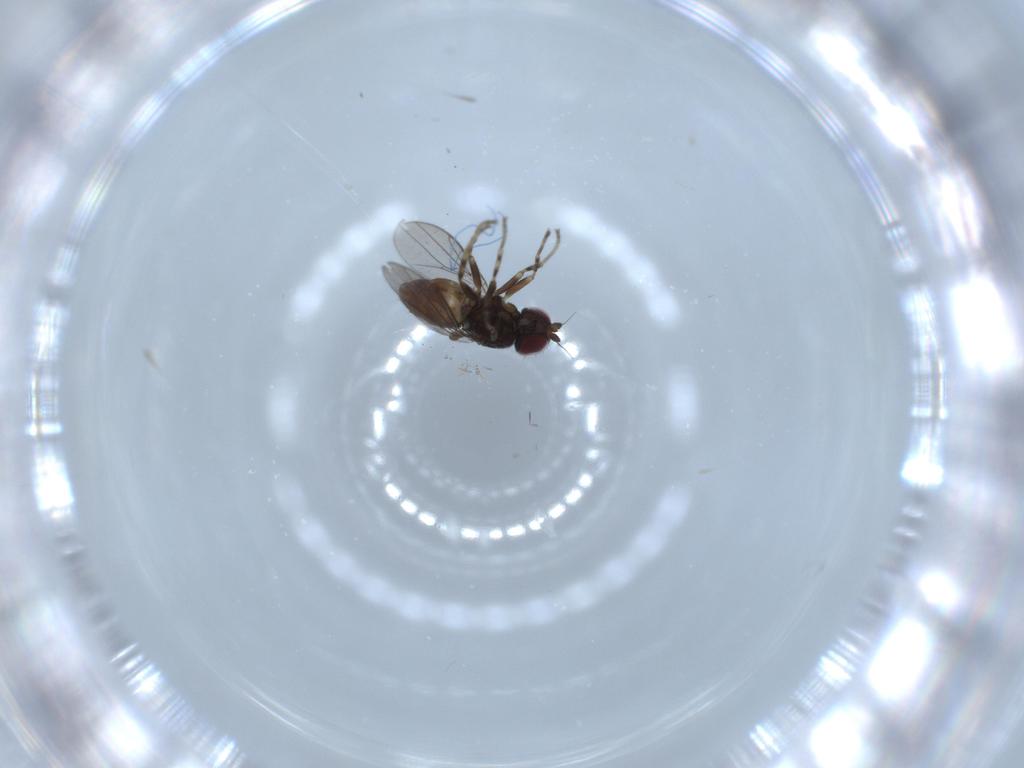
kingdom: Animalia
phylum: Arthropoda
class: Insecta
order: Diptera
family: Chloropidae
